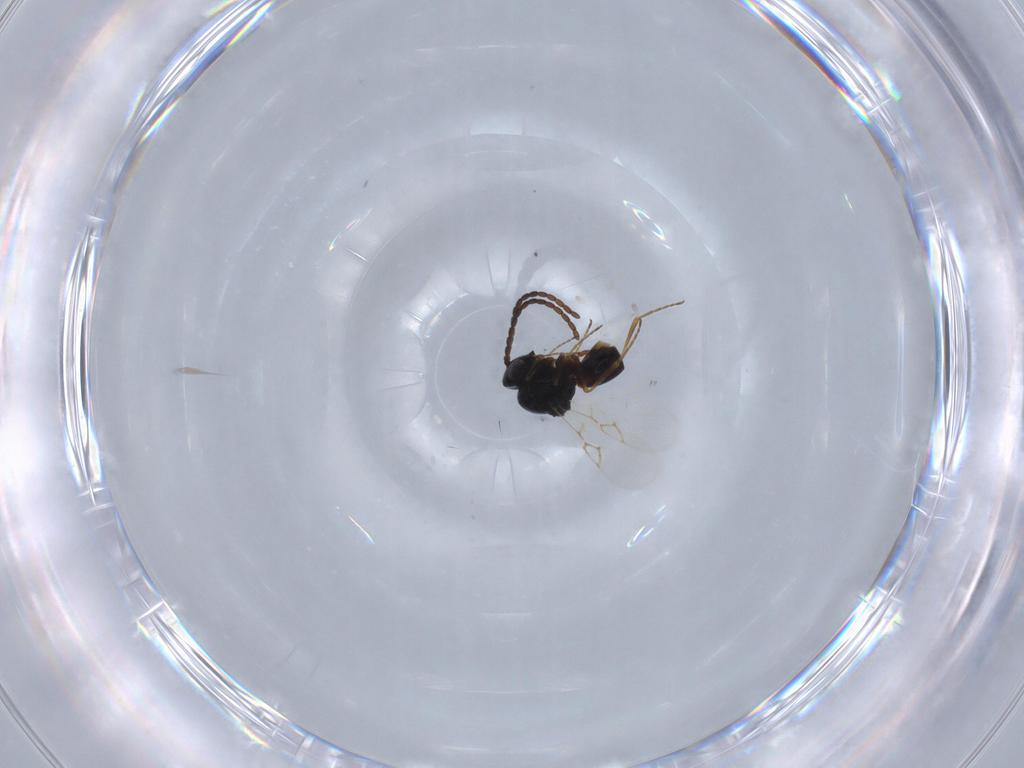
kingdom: Animalia
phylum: Arthropoda
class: Insecta
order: Hymenoptera
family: Figitidae
